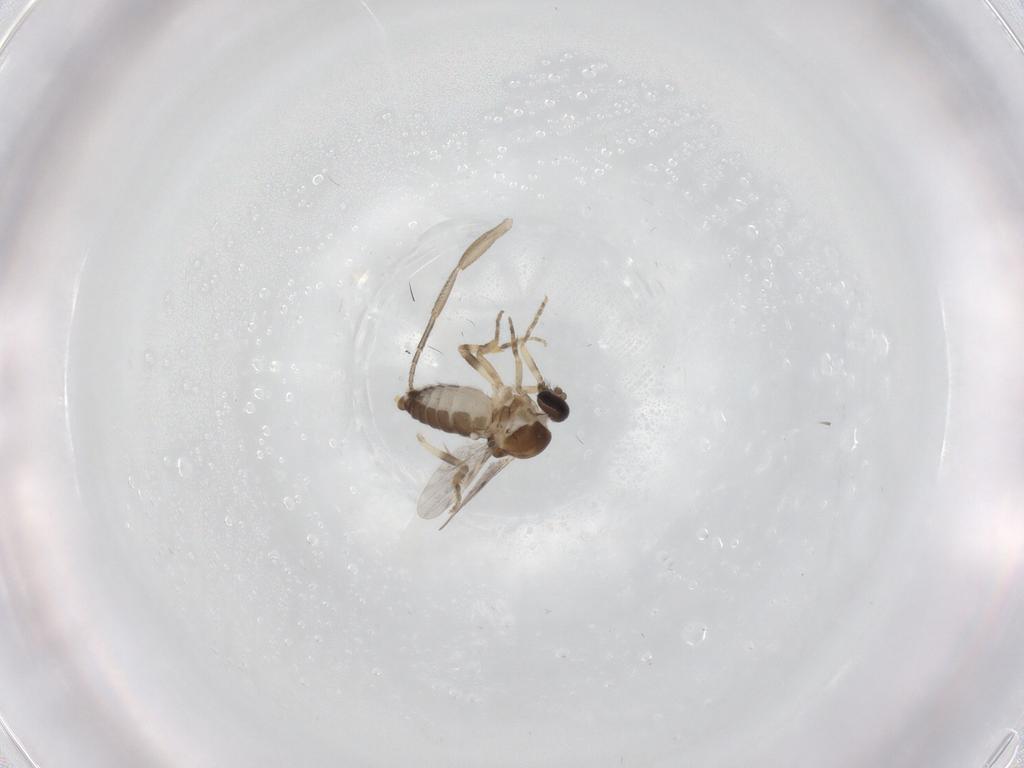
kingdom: Animalia
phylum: Arthropoda
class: Insecta
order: Diptera
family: Ceratopogonidae
